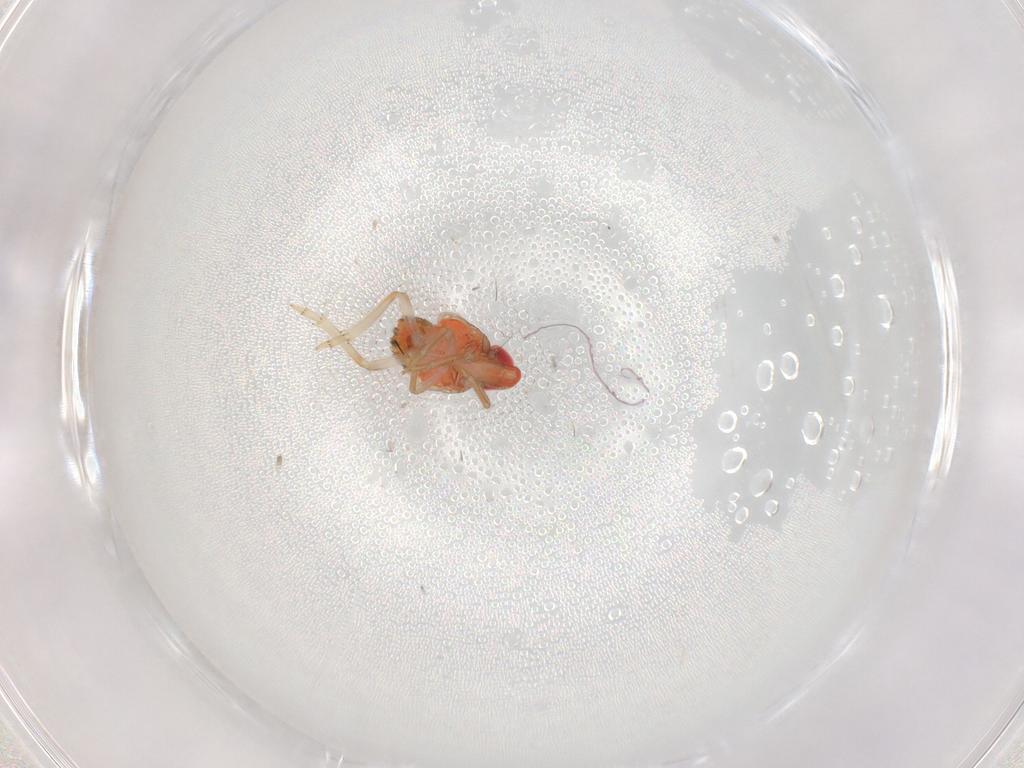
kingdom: Animalia
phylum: Arthropoda
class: Insecta
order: Hemiptera
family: Issidae
